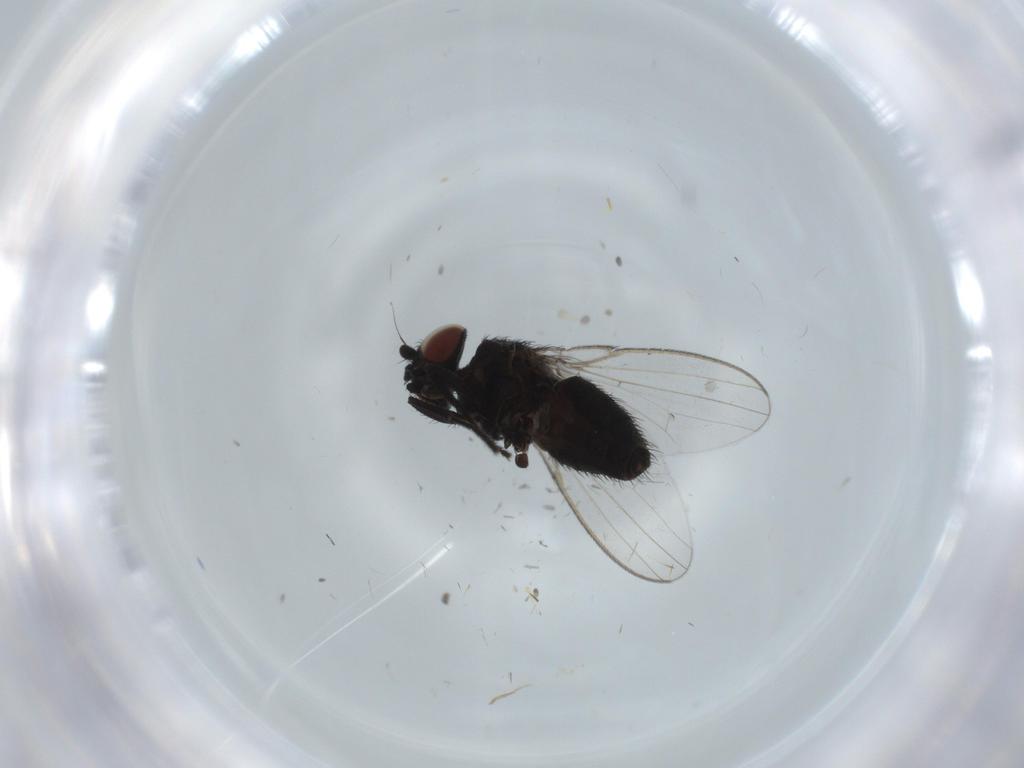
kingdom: Animalia
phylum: Arthropoda
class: Insecta
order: Diptera
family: Milichiidae
